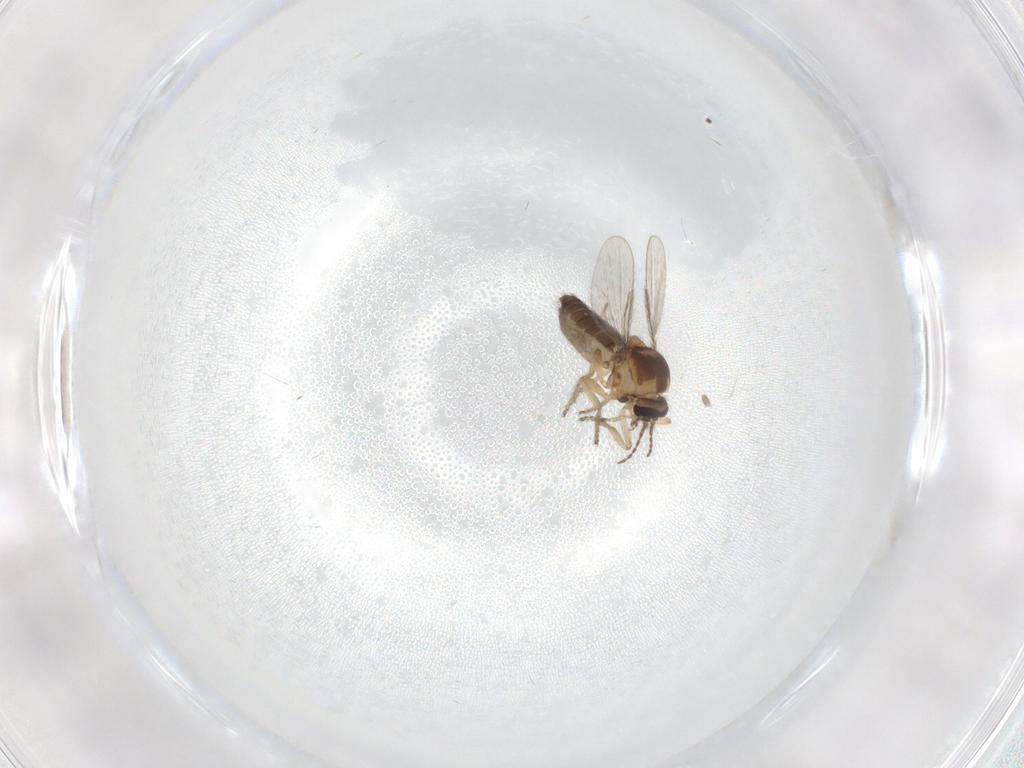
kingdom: Animalia
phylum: Arthropoda
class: Insecta
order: Diptera
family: Ceratopogonidae
